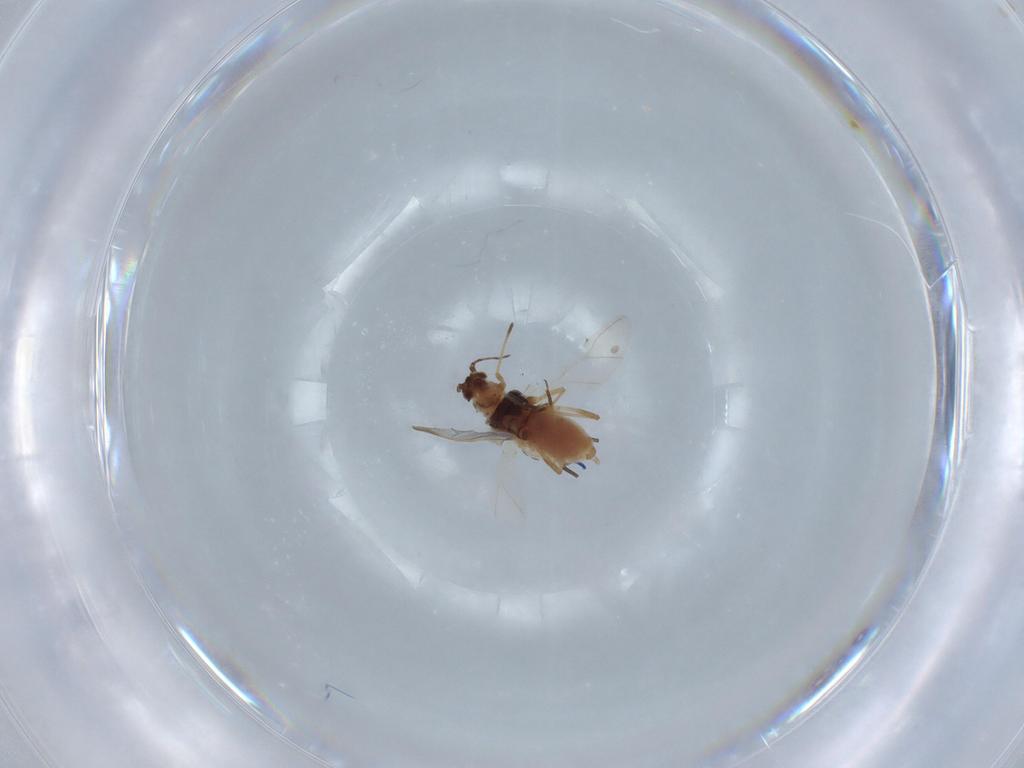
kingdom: Animalia
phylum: Arthropoda
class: Insecta
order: Hemiptera
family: Aphididae
